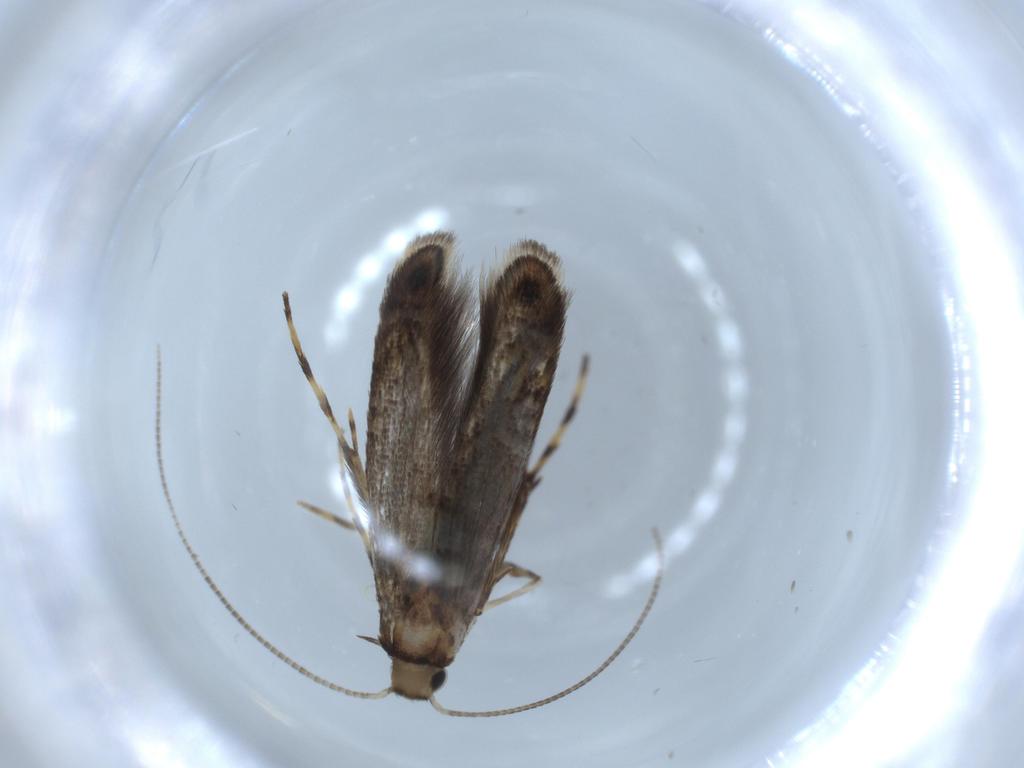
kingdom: Animalia
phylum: Arthropoda
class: Insecta
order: Lepidoptera
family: Gracillariidae
